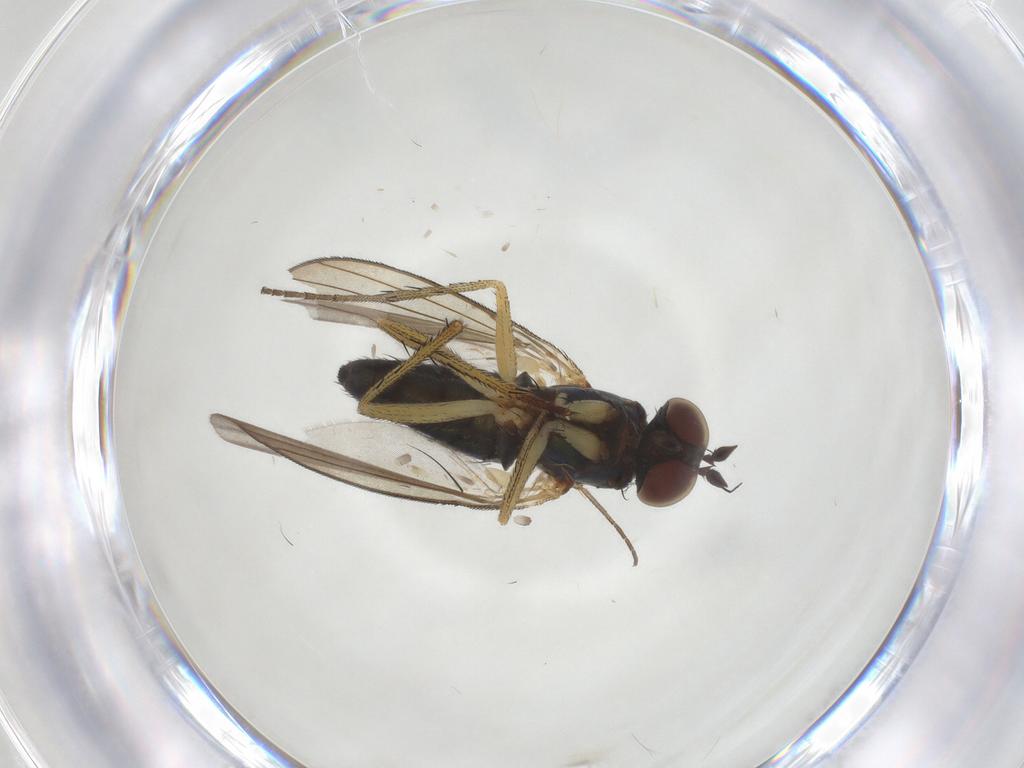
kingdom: Animalia
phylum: Arthropoda
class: Insecta
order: Diptera
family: Dolichopodidae
